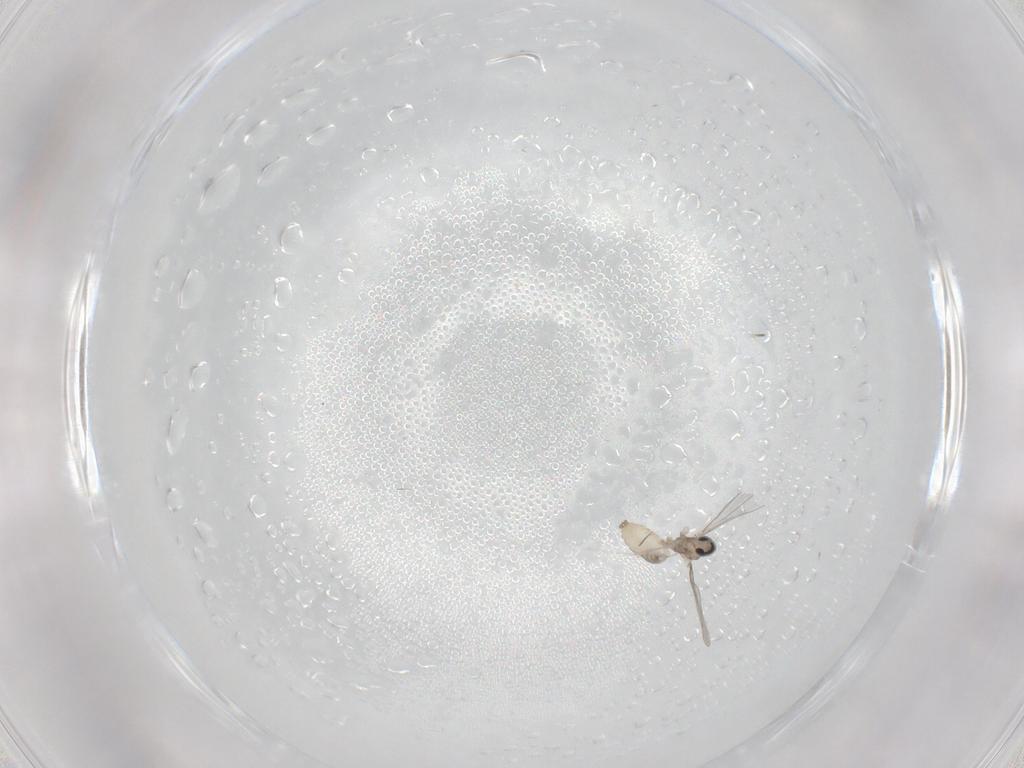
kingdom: Animalia
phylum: Arthropoda
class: Insecta
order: Diptera
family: Cecidomyiidae
